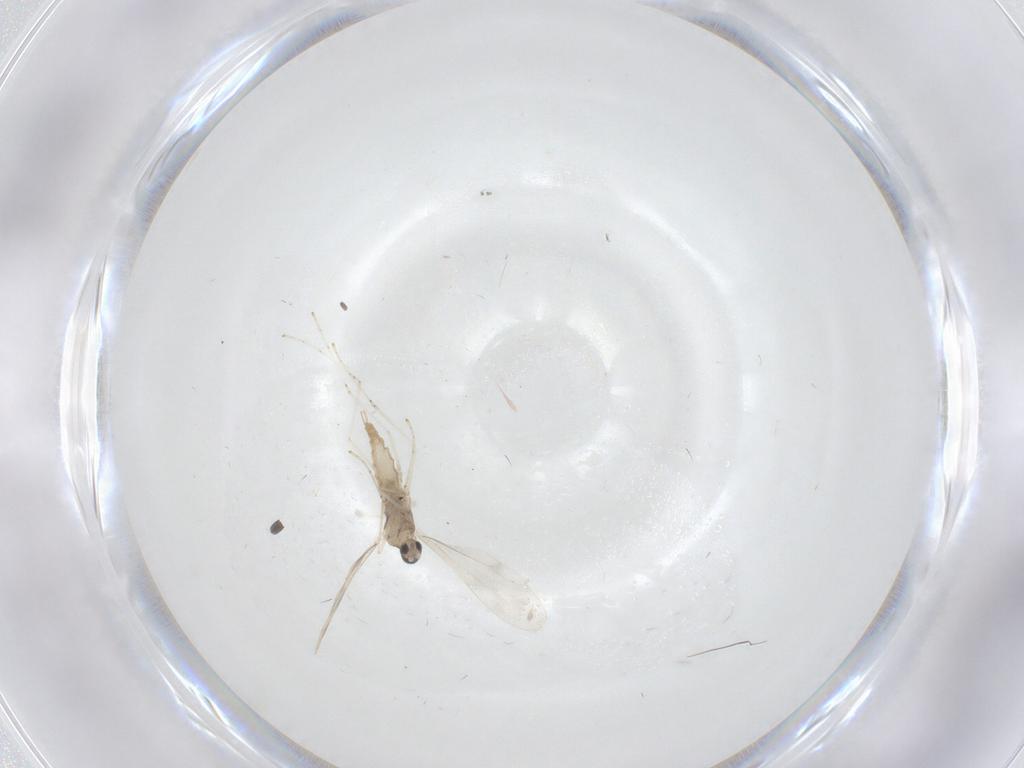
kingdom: Animalia
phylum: Arthropoda
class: Insecta
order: Diptera
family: Cecidomyiidae
